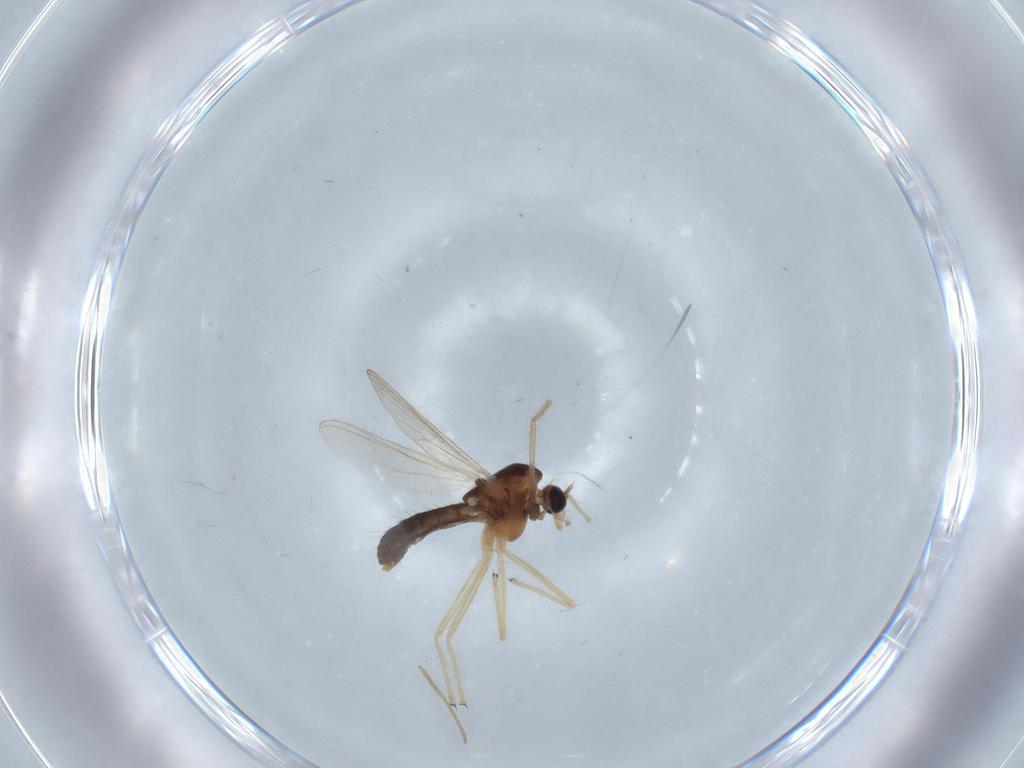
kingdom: Animalia
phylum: Arthropoda
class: Insecta
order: Diptera
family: Chironomidae
